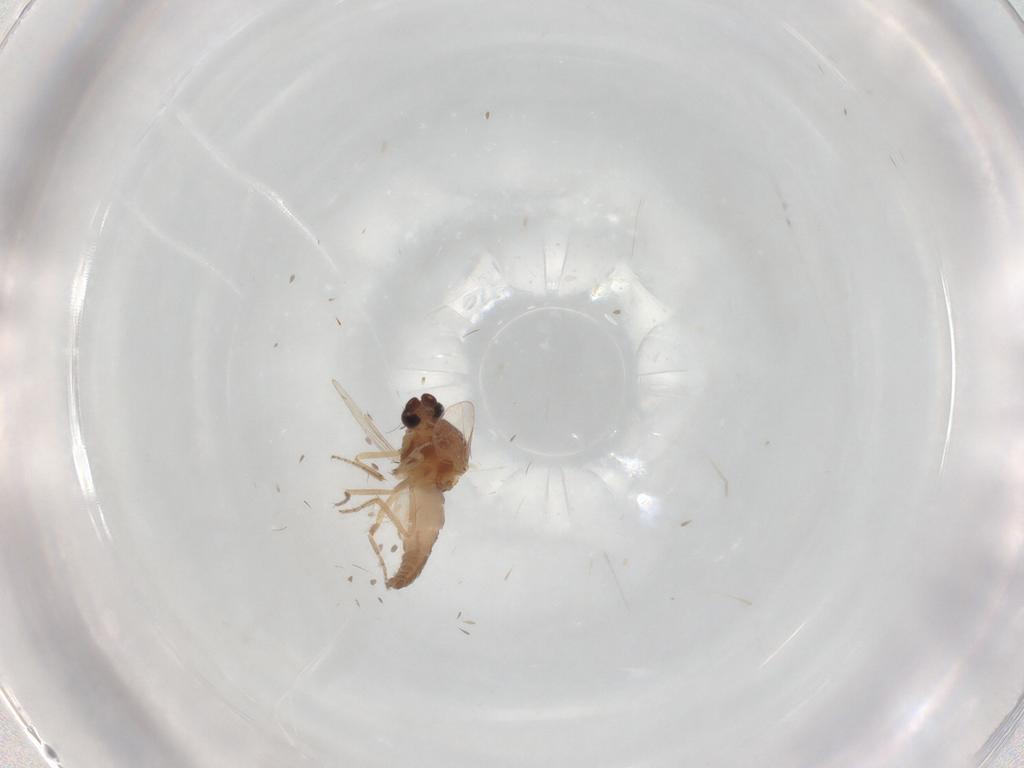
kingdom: Animalia
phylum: Arthropoda
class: Insecta
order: Diptera
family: Ceratopogonidae
